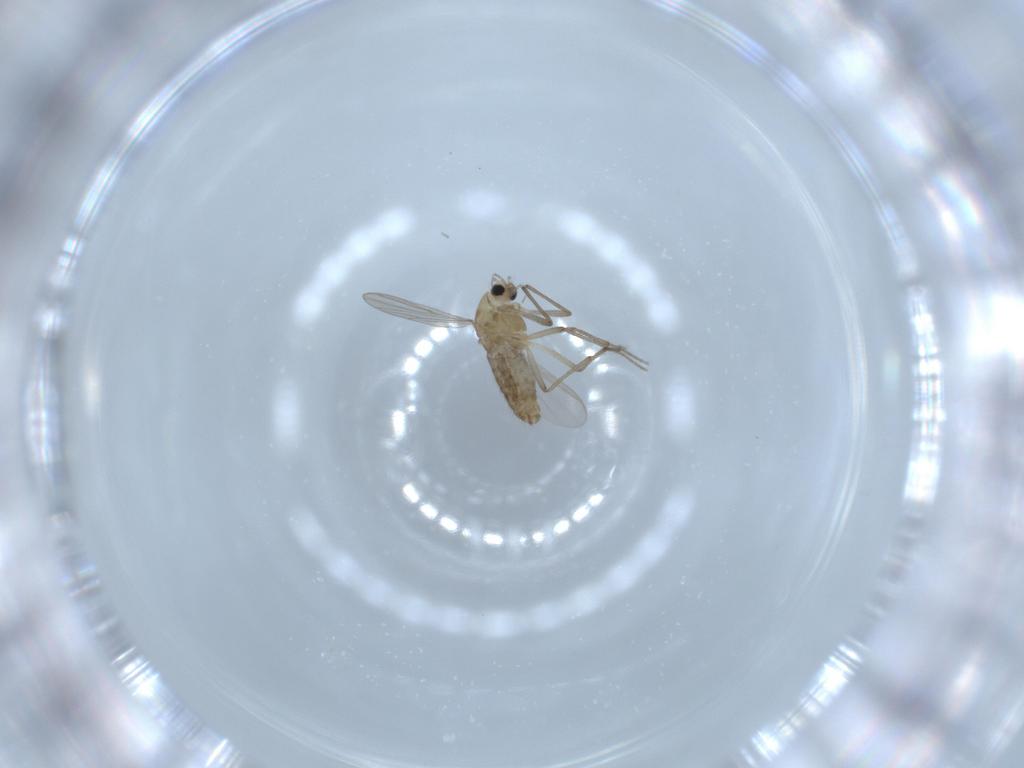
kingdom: Animalia
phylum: Arthropoda
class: Insecta
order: Diptera
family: Chironomidae
